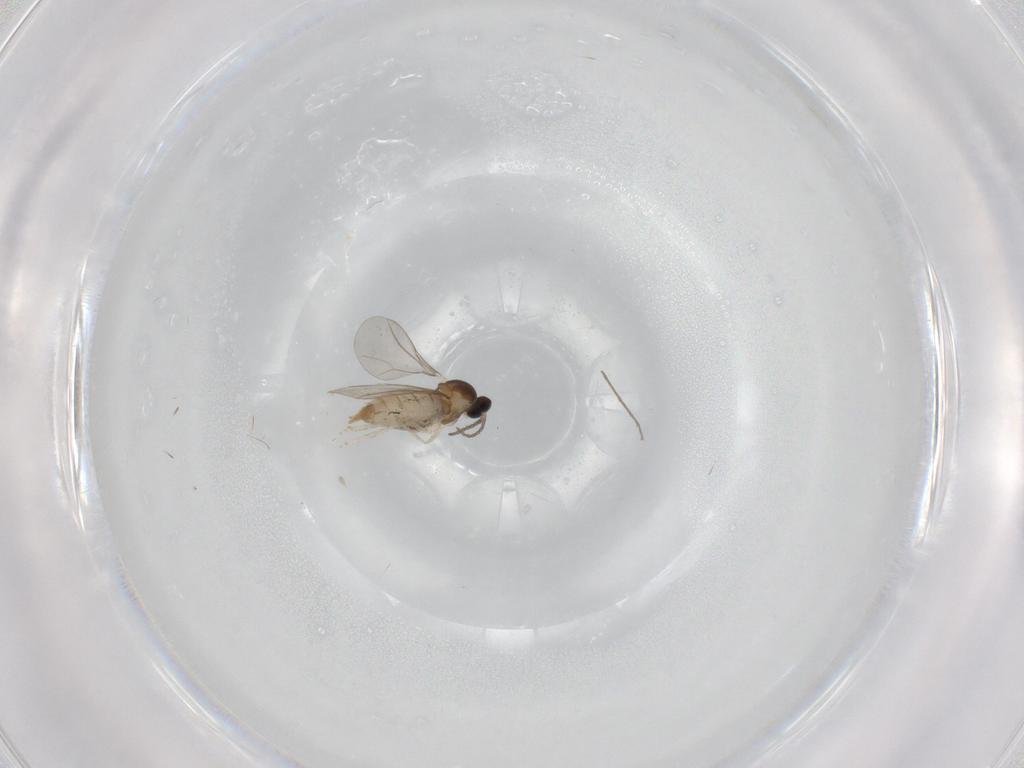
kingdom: Animalia
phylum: Arthropoda
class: Insecta
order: Diptera
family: Cecidomyiidae
